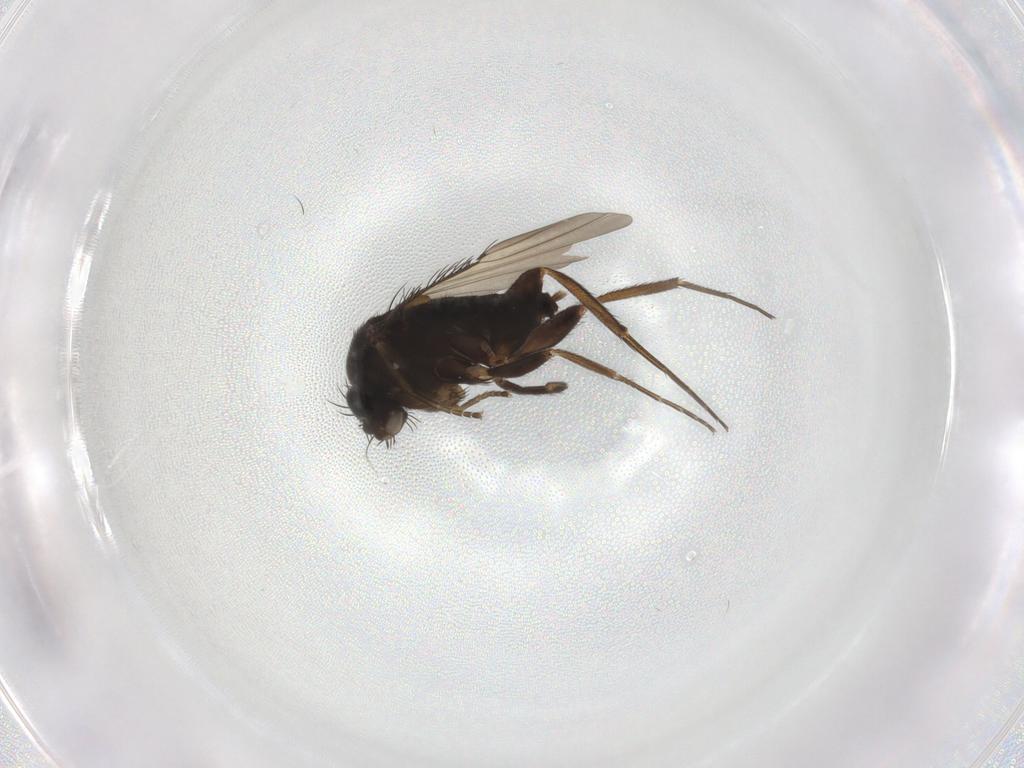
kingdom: Animalia
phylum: Arthropoda
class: Insecta
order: Diptera
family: Phoridae
